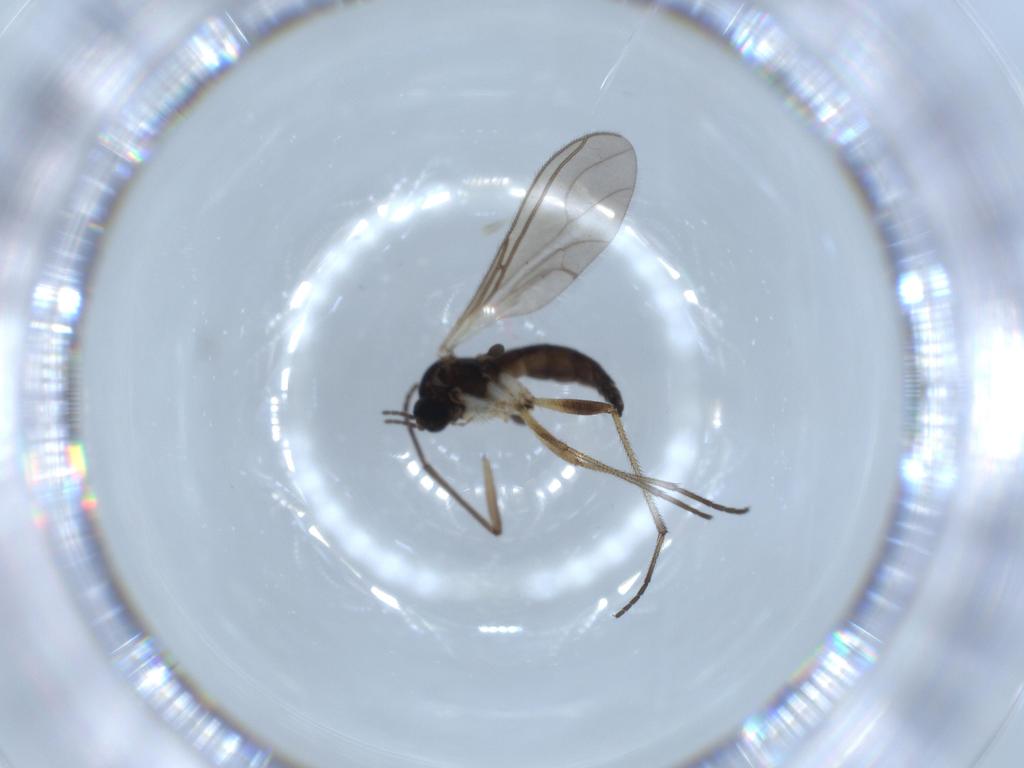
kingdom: Animalia
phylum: Arthropoda
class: Insecta
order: Diptera
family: Sciaridae
